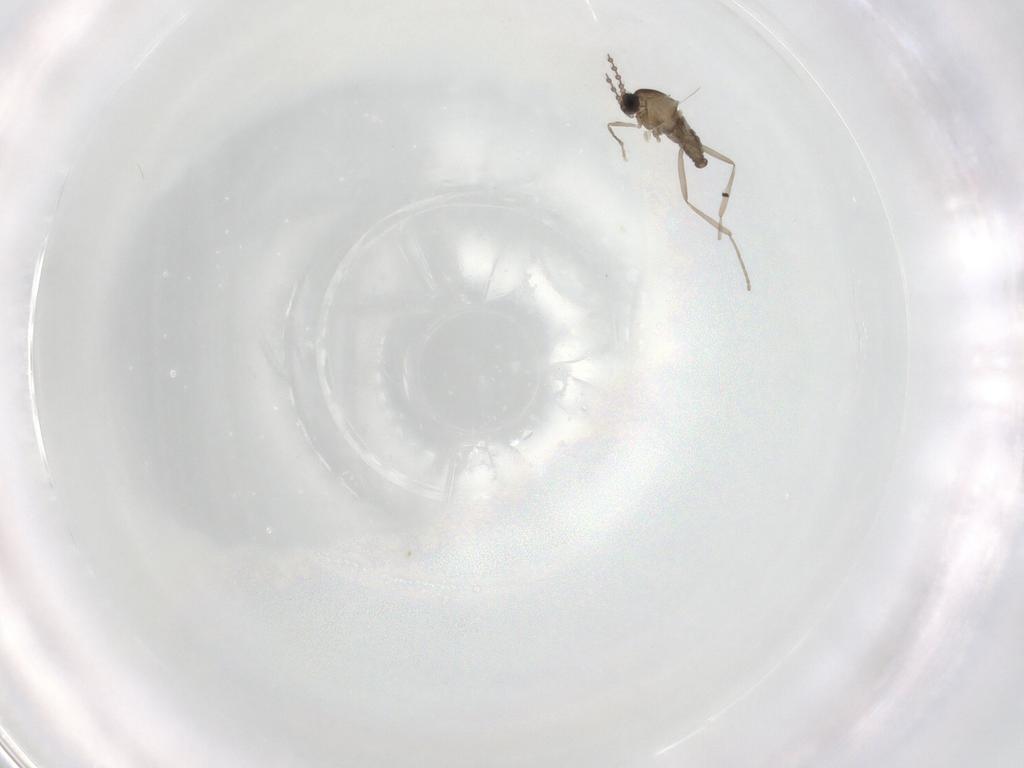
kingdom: Animalia
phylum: Arthropoda
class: Insecta
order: Diptera
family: Cecidomyiidae
